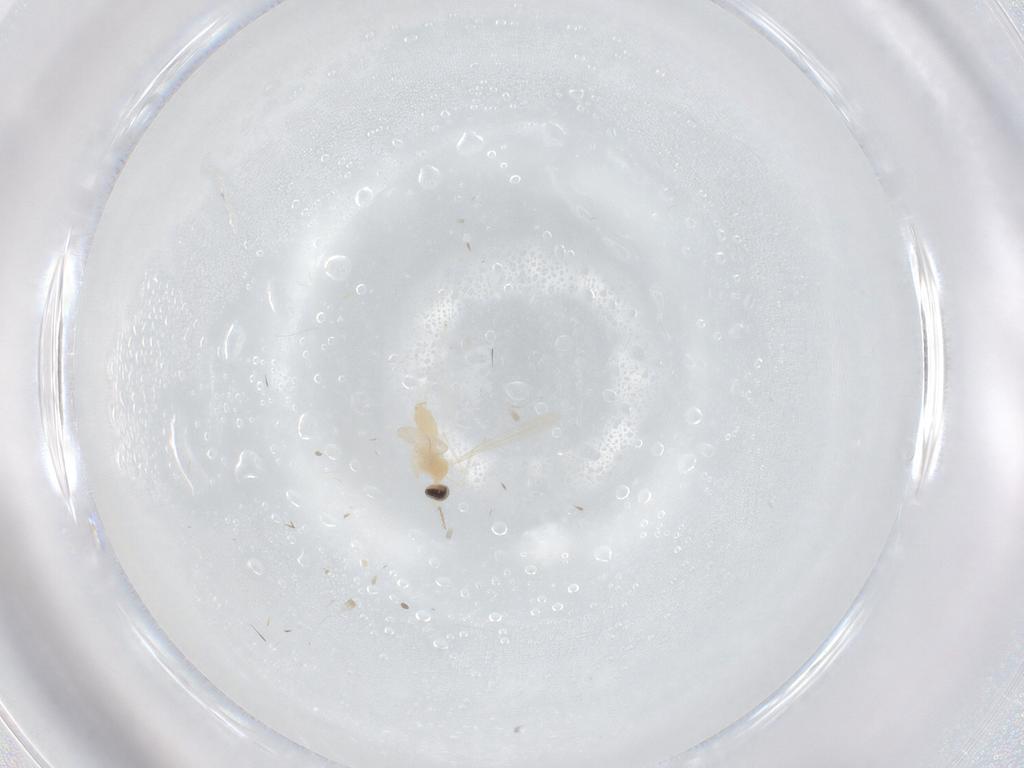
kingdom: Animalia
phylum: Arthropoda
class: Insecta
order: Diptera
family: Cecidomyiidae
